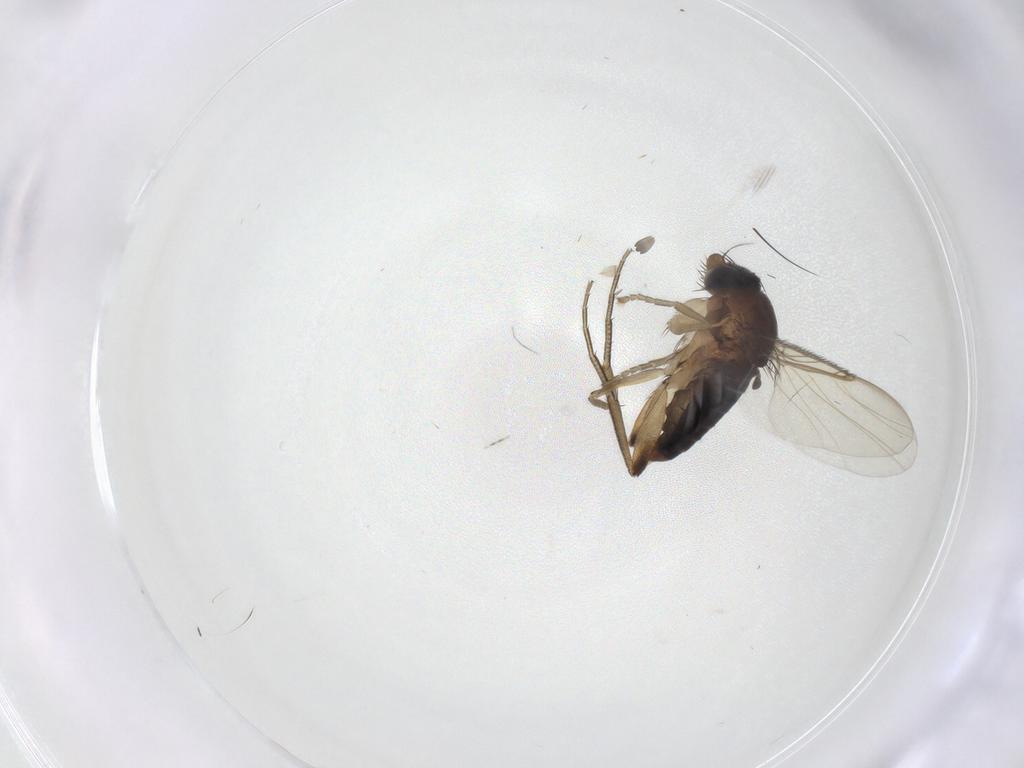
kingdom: Animalia
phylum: Arthropoda
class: Insecta
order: Diptera
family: Phoridae
